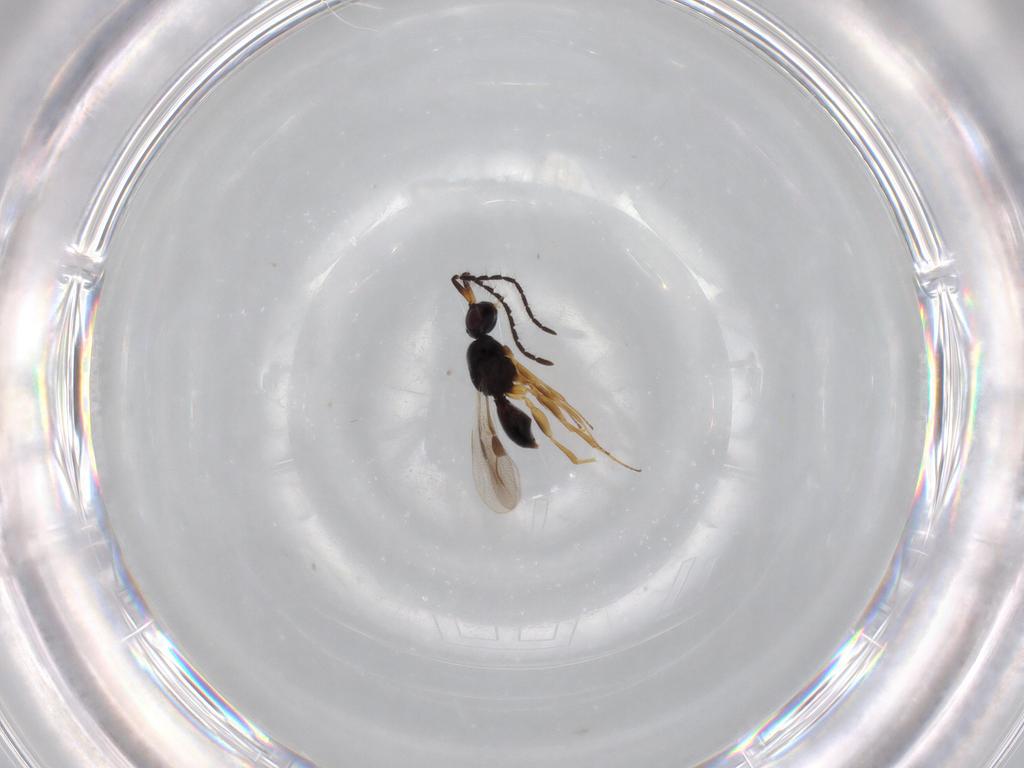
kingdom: Animalia
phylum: Arthropoda
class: Insecta
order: Hymenoptera
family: Megaspilidae
